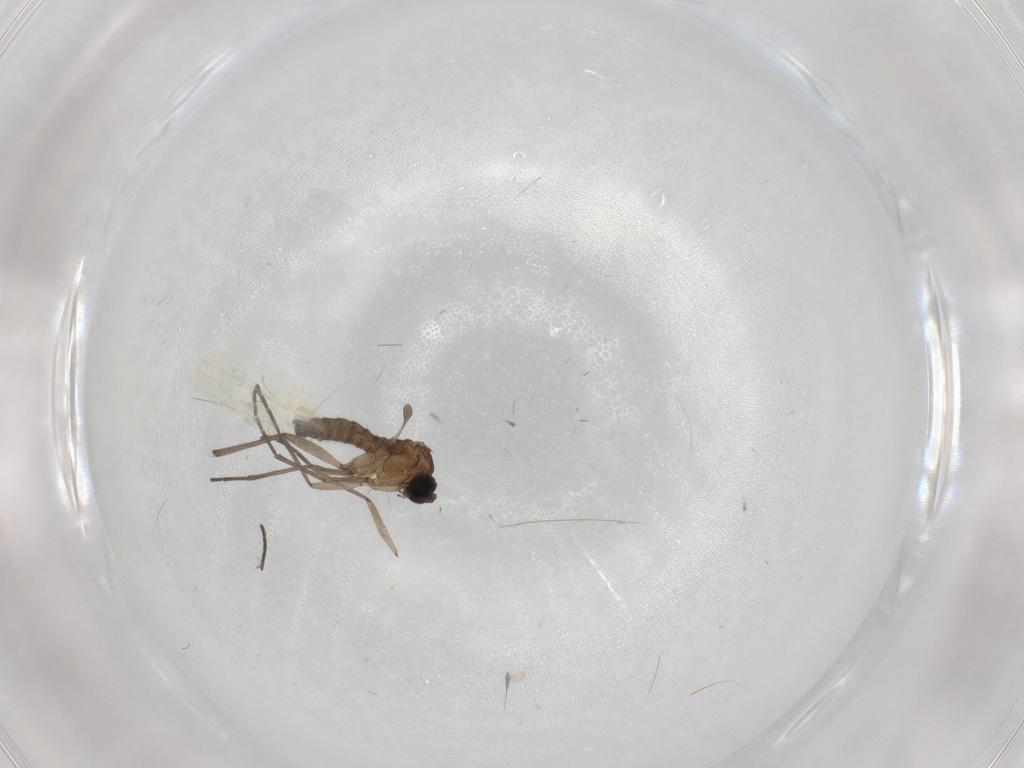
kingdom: Animalia
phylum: Arthropoda
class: Insecta
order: Diptera
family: Sciaridae
